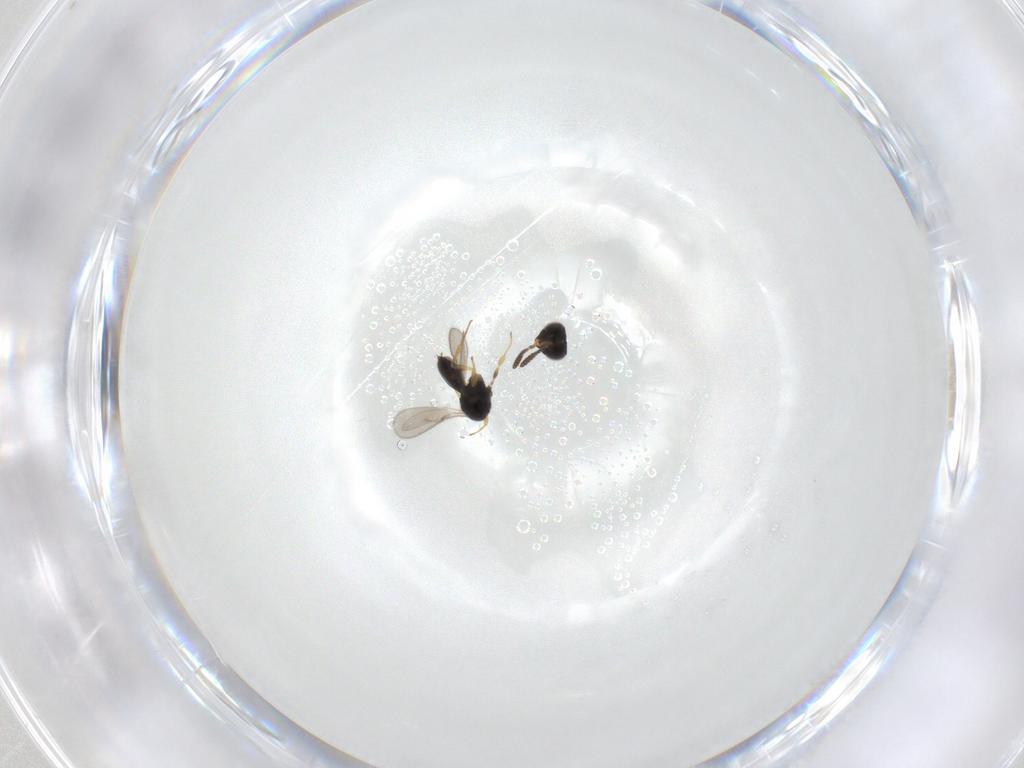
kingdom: Animalia
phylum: Arthropoda
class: Insecta
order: Hymenoptera
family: Scelionidae
